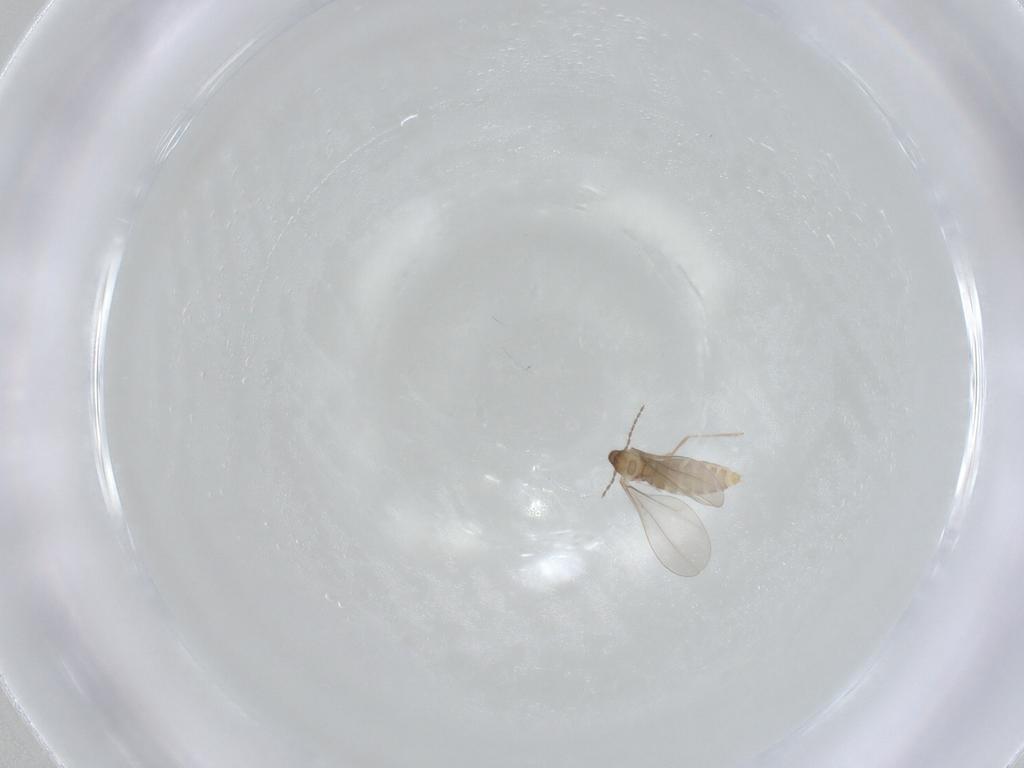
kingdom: Animalia
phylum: Arthropoda
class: Insecta
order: Diptera
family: Cecidomyiidae
